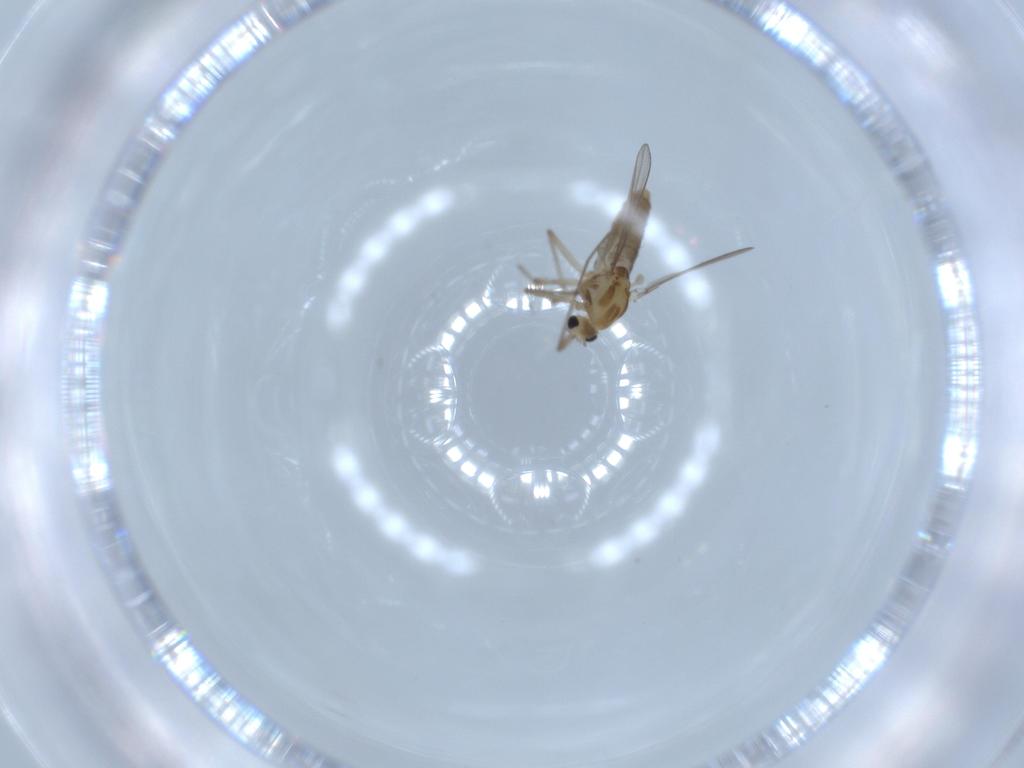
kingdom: Animalia
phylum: Arthropoda
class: Insecta
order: Diptera
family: Chironomidae
